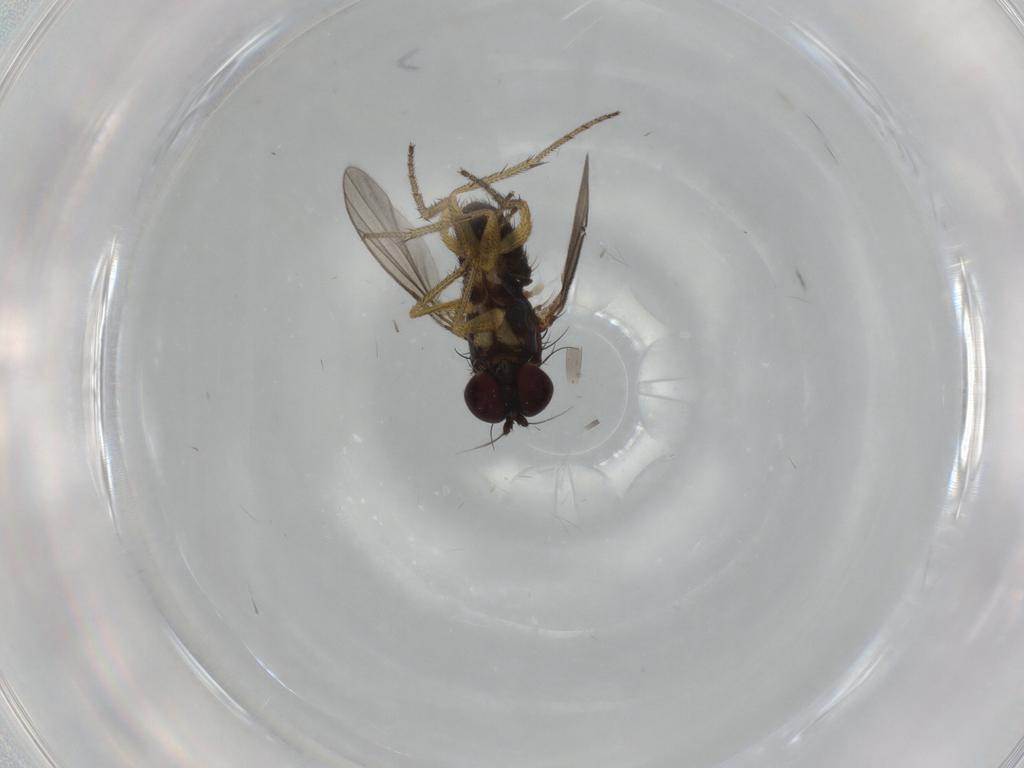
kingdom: Animalia
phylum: Arthropoda
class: Insecta
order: Diptera
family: Dolichopodidae
